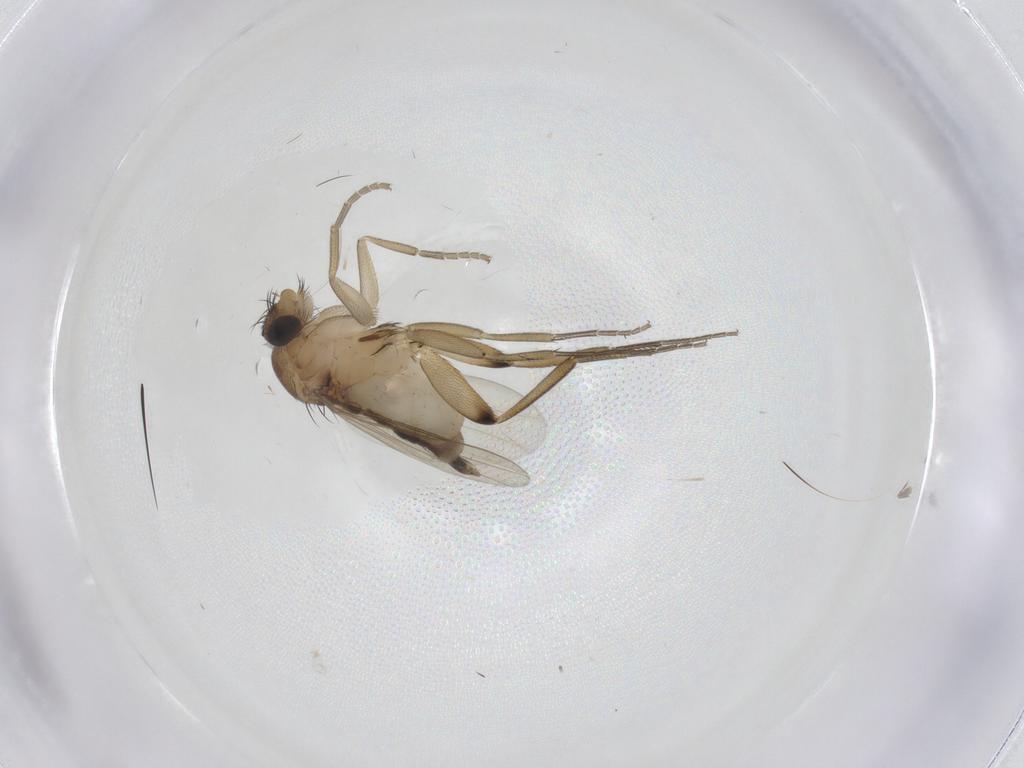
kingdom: Animalia
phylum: Arthropoda
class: Insecta
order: Diptera
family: Phoridae
